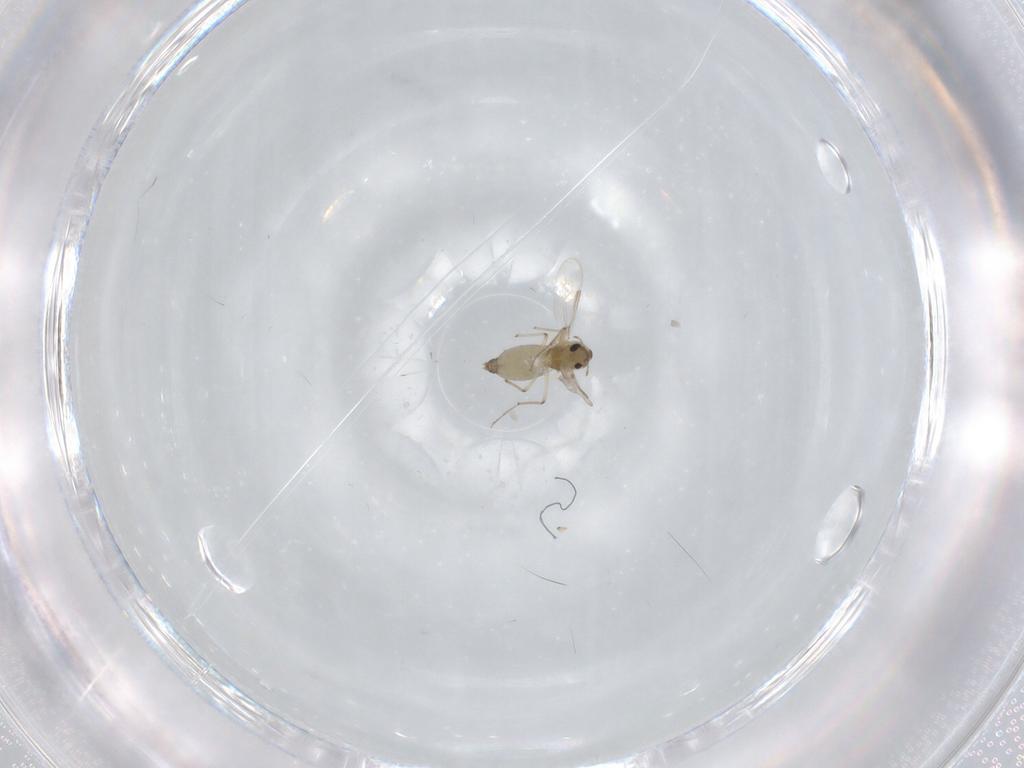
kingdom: Animalia
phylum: Arthropoda
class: Insecta
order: Diptera
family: Chironomidae
